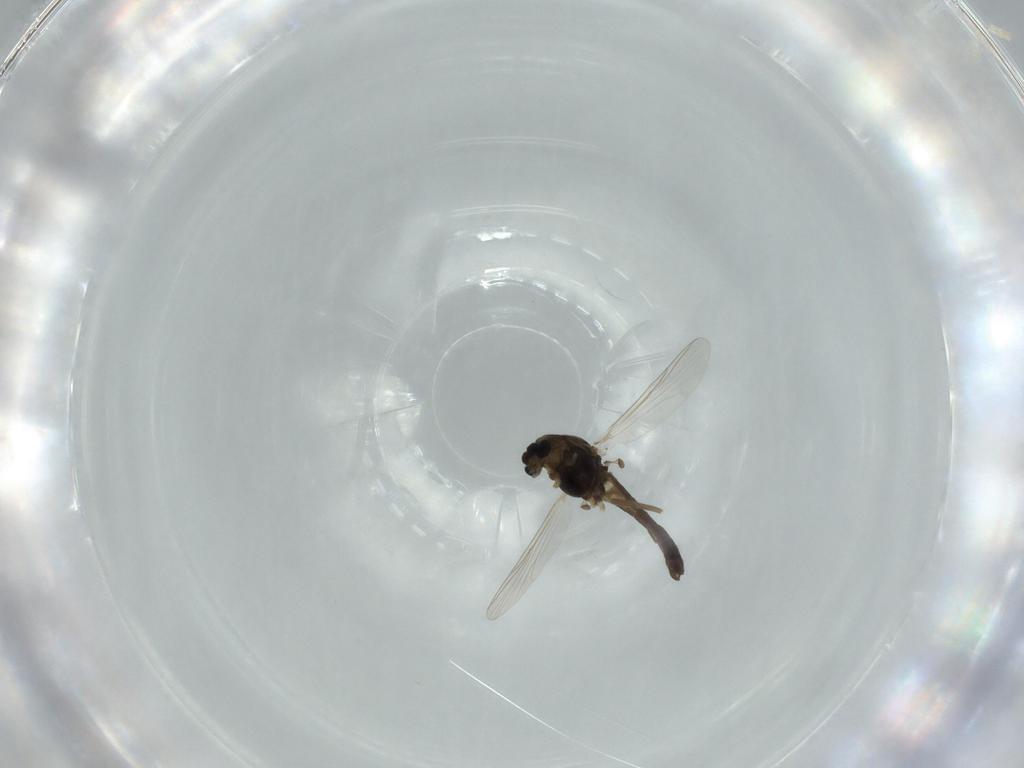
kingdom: Animalia
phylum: Arthropoda
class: Insecta
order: Diptera
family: Chironomidae
